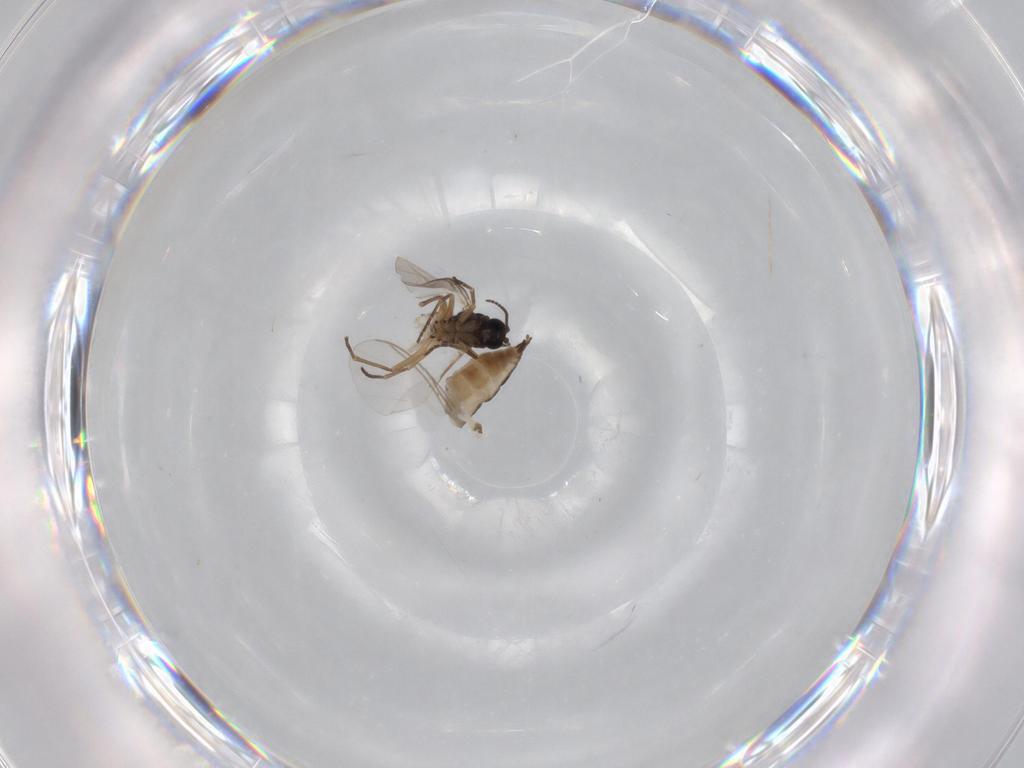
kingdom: Animalia
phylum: Arthropoda
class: Insecta
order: Diptera
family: Sciaridae
